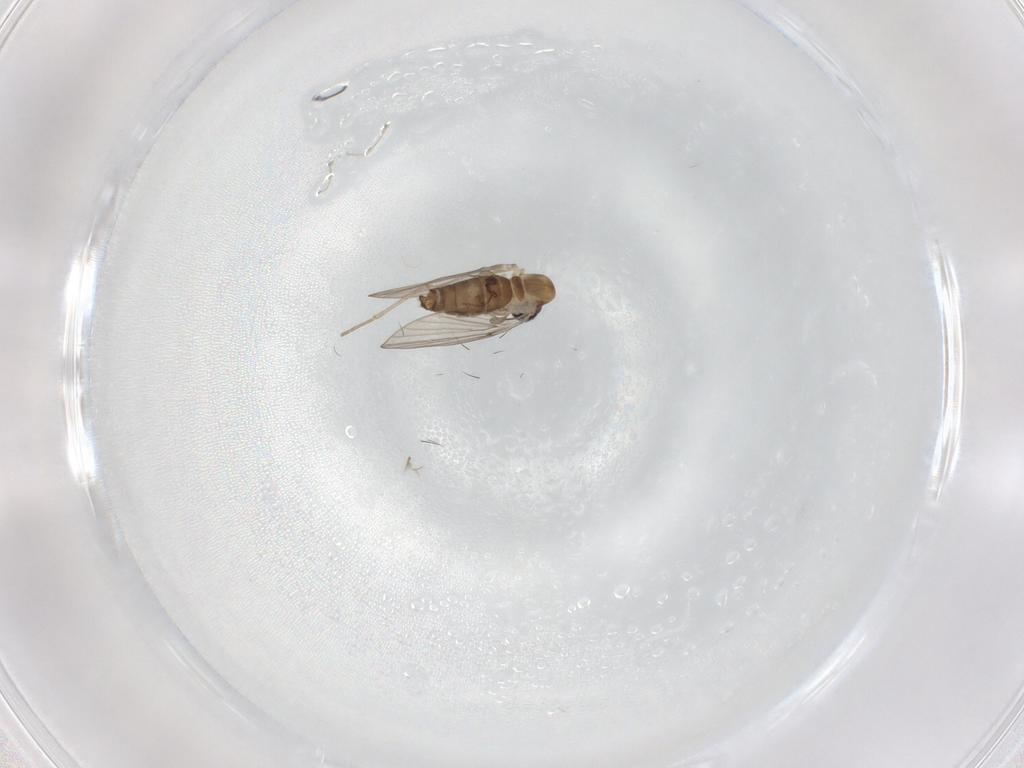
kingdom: Animalia
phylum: Arthropoda
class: Insecta
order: Diptera
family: Psychodidae
